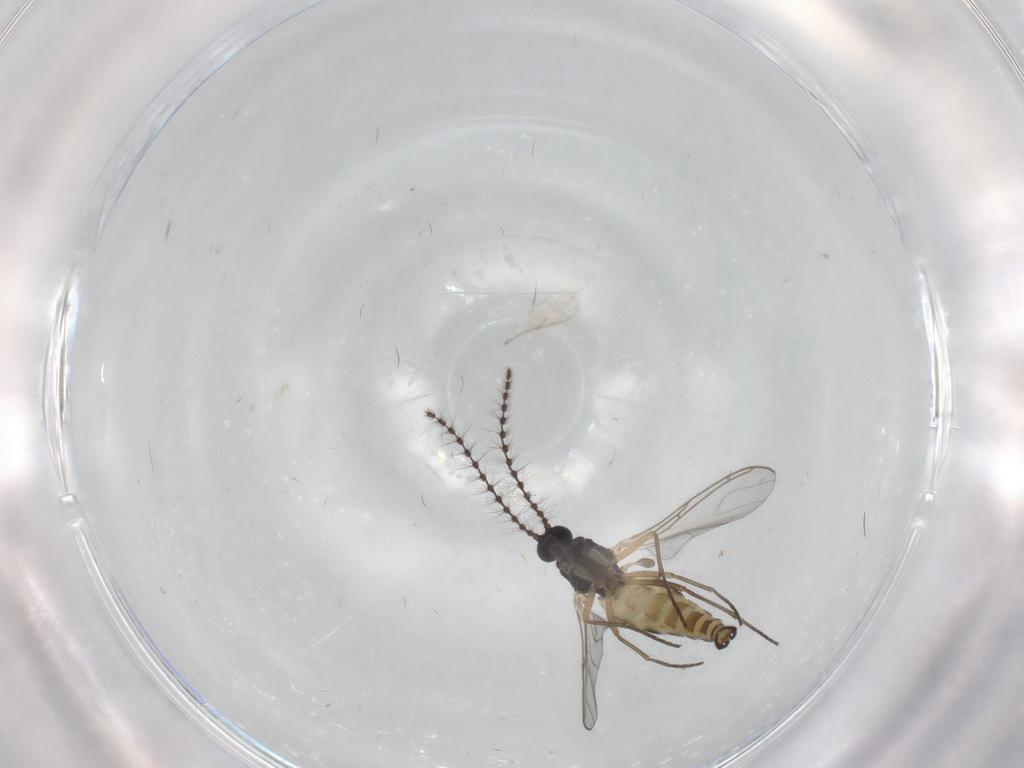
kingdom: Animalia
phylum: Arthropoda
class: Insecta
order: Diptera
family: Sciaridae
